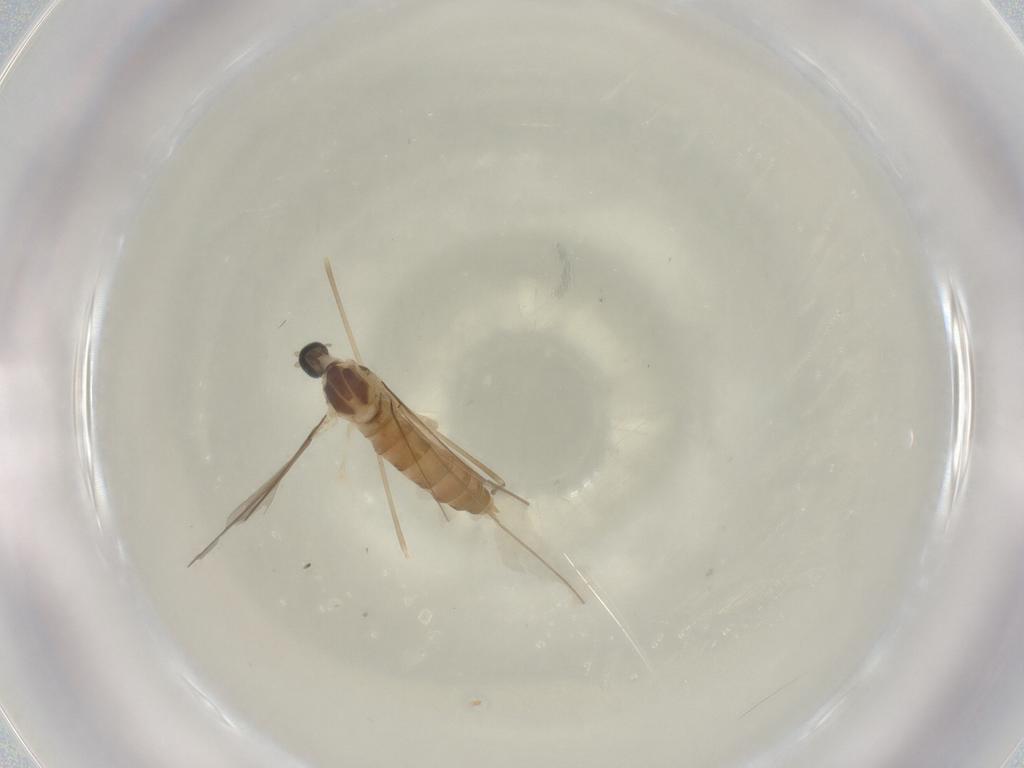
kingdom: Animalia
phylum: Arthropoda
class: Insecta
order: Diptera
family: Cecidomyiidae
